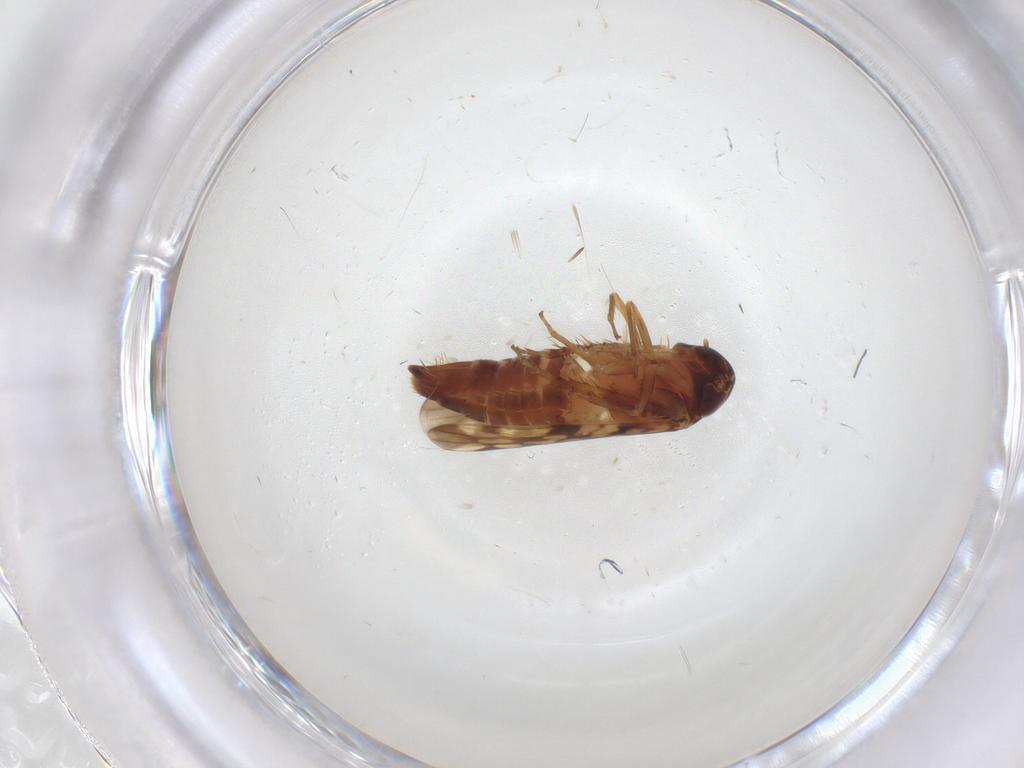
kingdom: Animalia
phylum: Arthropoda
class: Insecta
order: Hemiptera
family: Cicadellidae
